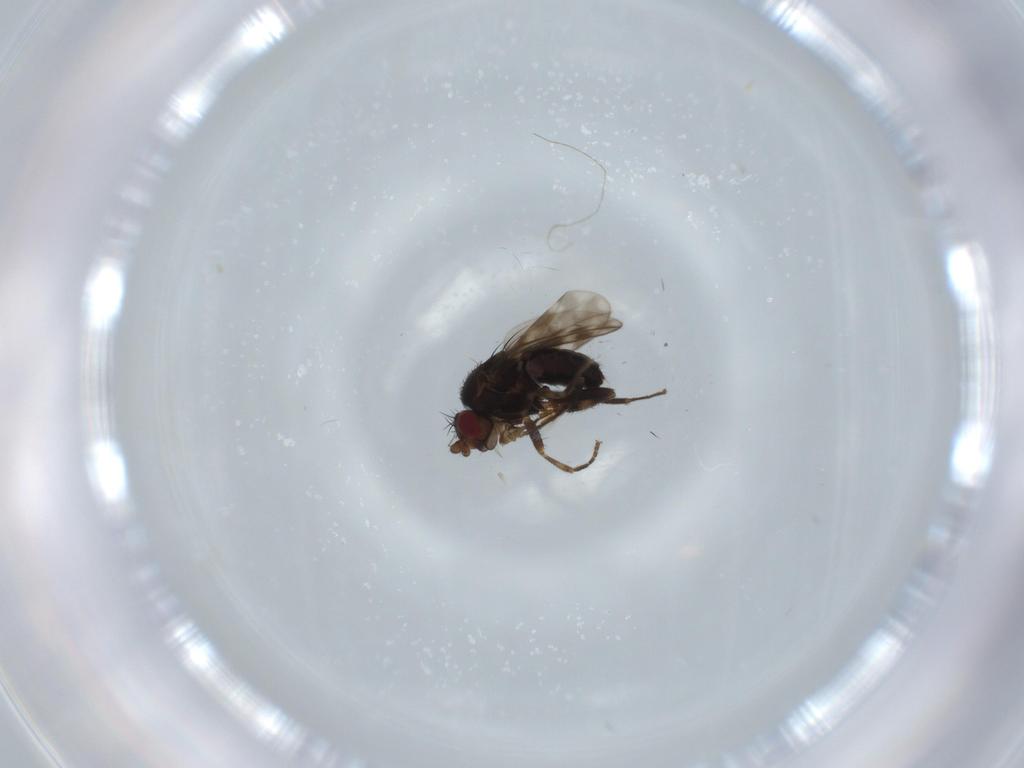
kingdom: Animalia
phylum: Arthropoda
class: Insecta
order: Diptera
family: Sphaeroceridae
